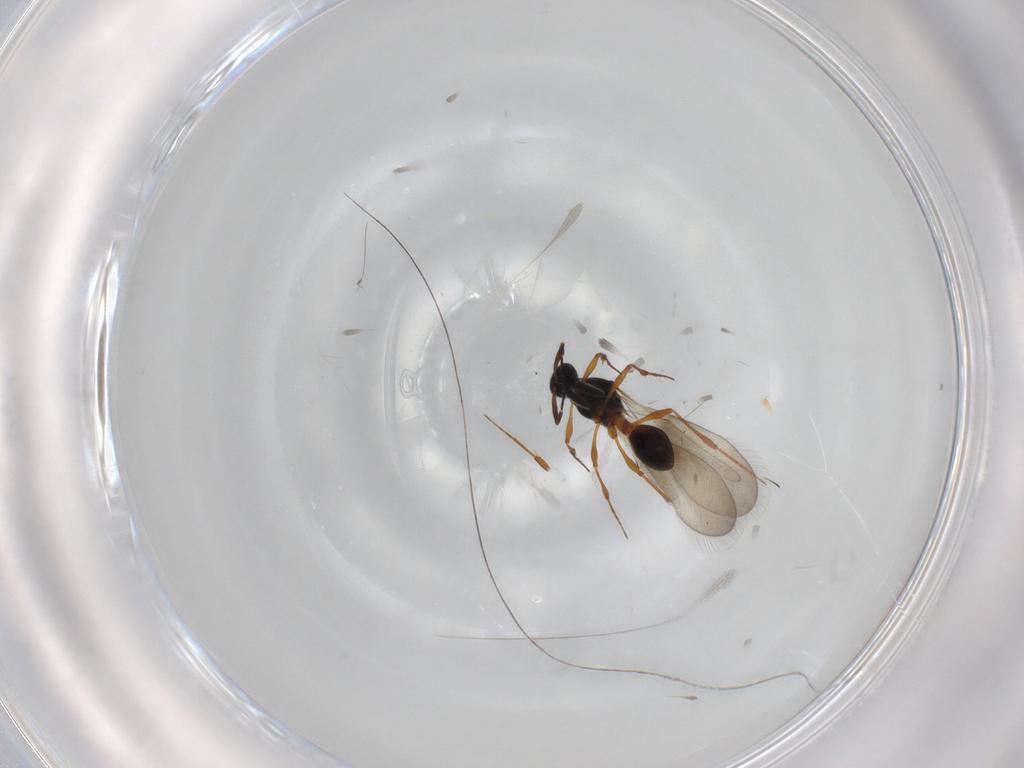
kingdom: Animalia
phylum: Arthropoda
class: Insecta
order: Hymenoptera
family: Platygastridae
